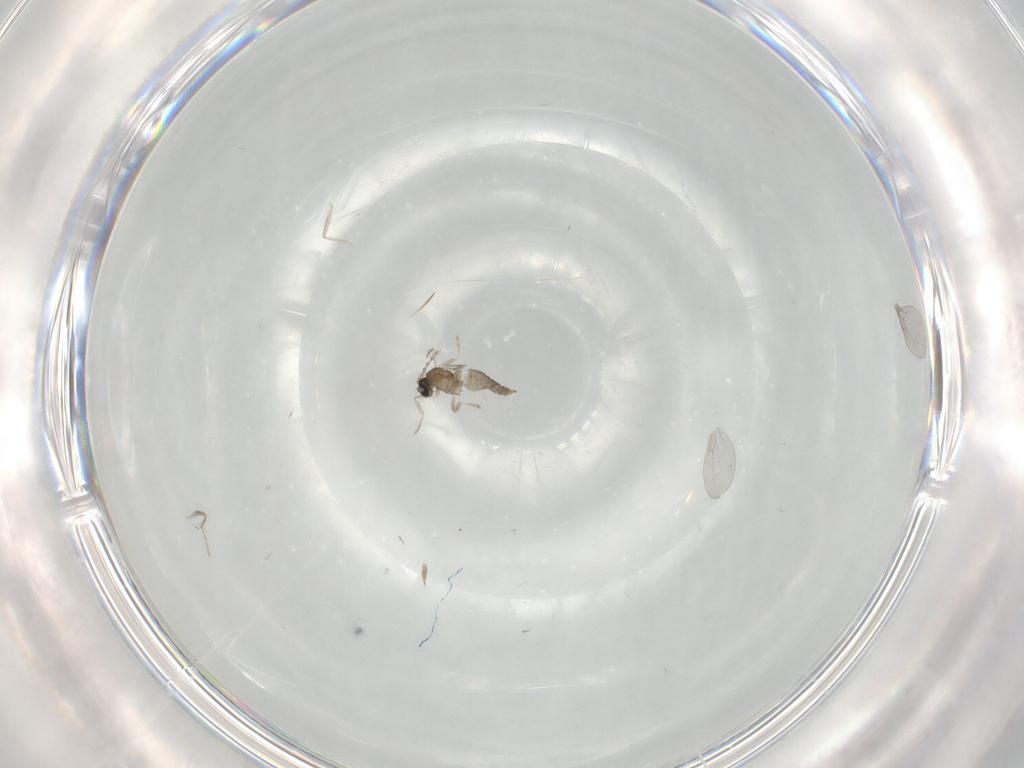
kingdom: Animalia
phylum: Arthropoda
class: Insecta
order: Diptera
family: Cecidomyiidae
